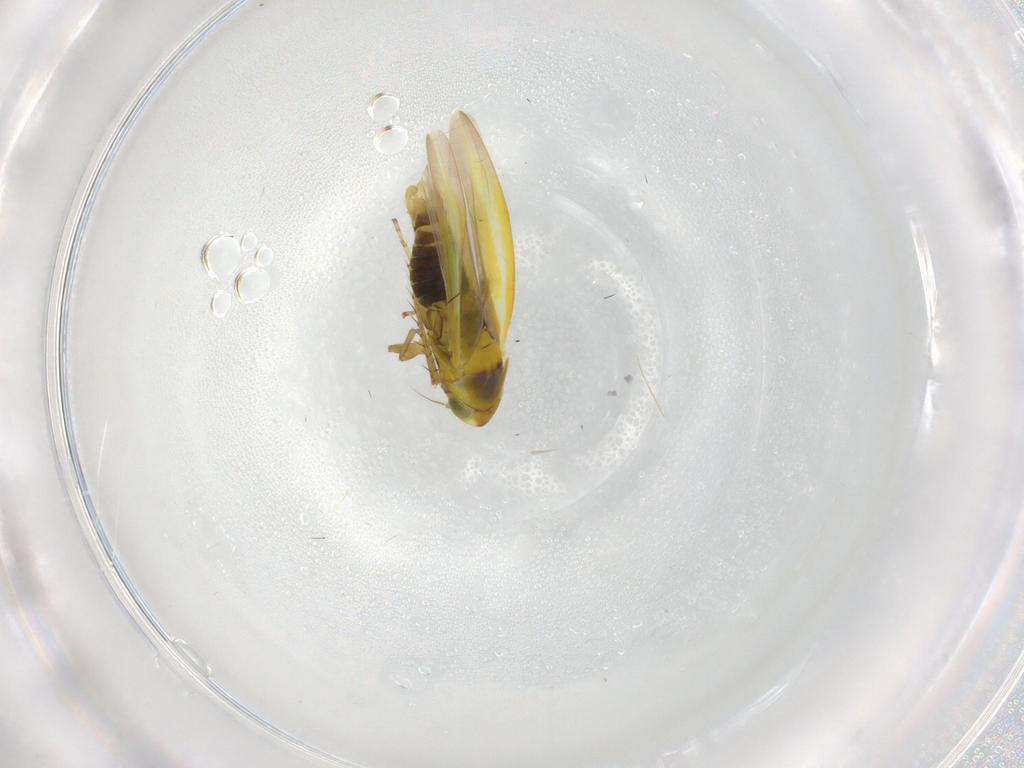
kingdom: Animalia
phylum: Arthropoda
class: Insecta
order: Hemiptera
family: Cicadellidae
